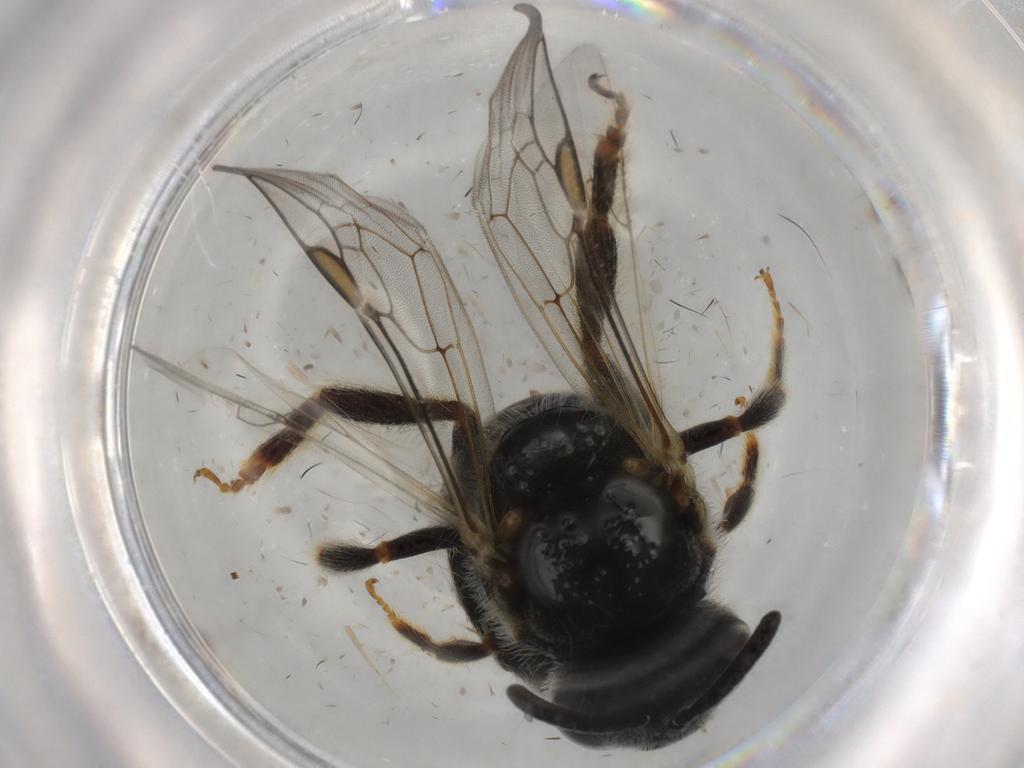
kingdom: Animalia
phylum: Arthropoda
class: Insecta
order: Hymenoptera
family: Halictidae
